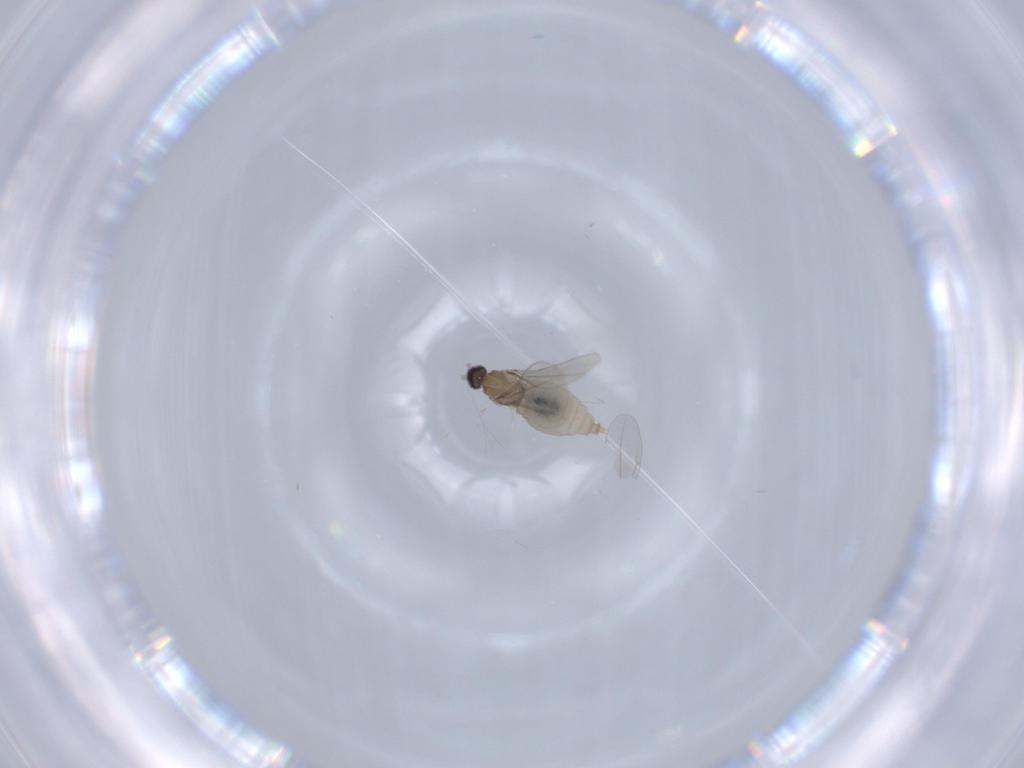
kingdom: Animalia
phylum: Arthropoda
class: Insecta
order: Diptera
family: Cecidomyiidae
